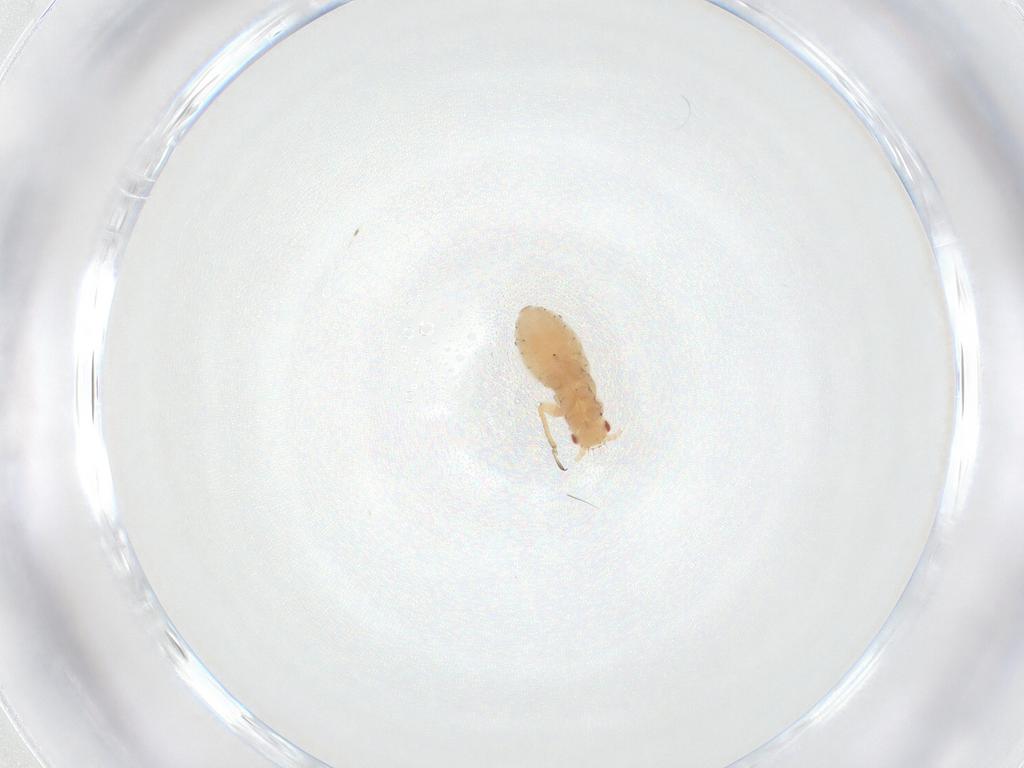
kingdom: Animalia
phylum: Arthropoda
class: Insecta
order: Hemiptera
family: Aphididae
